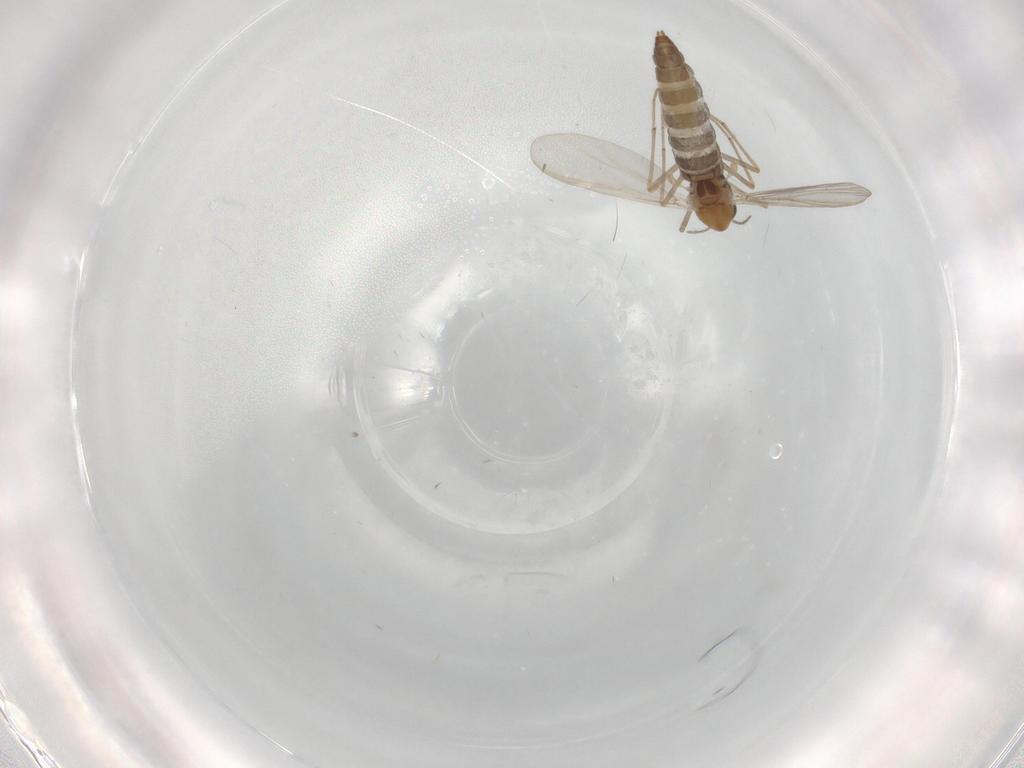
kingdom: Animalia
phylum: Arthropoda
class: Insecta
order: Diptera
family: Chironomidae
